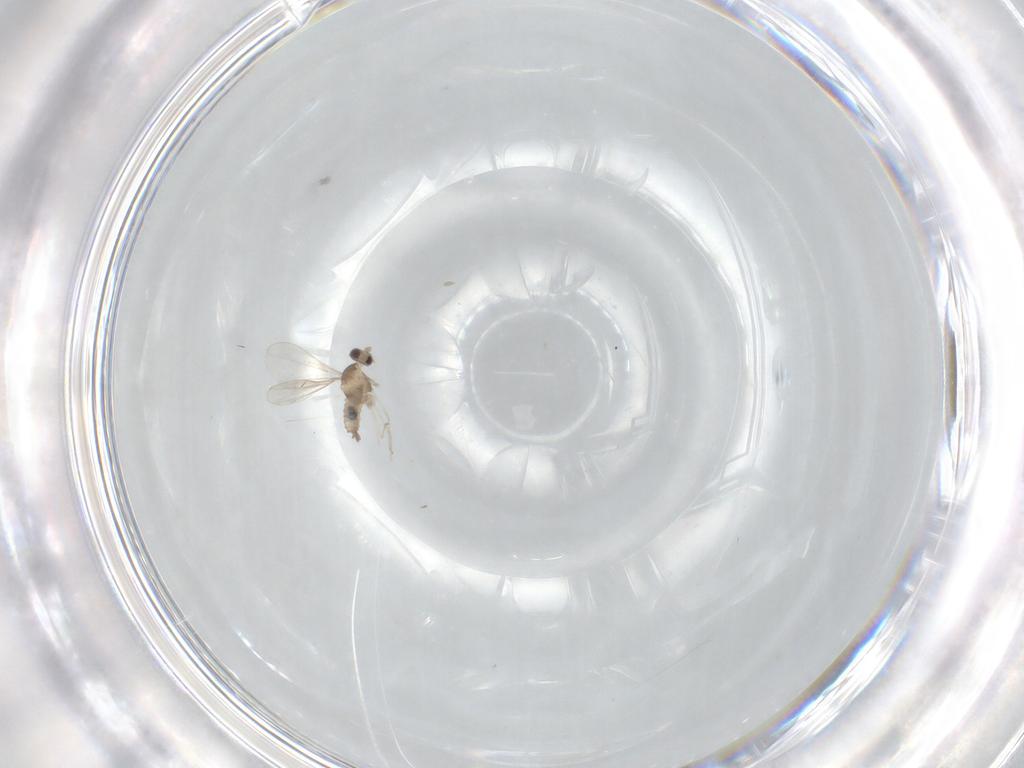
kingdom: Animalia
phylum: Arthropoda
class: Insecta
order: Diptera
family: Cecidomyiidae
